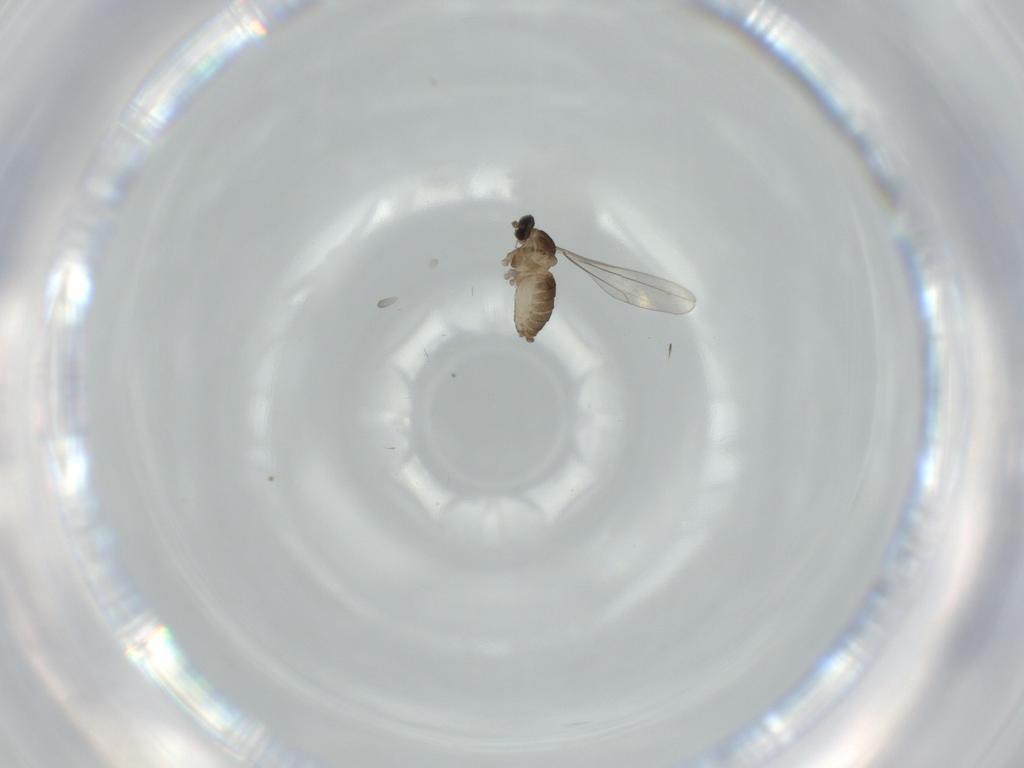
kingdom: Animalia
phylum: Arthropoda
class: Insecta
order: Diptera
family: Cecidomyiidae
